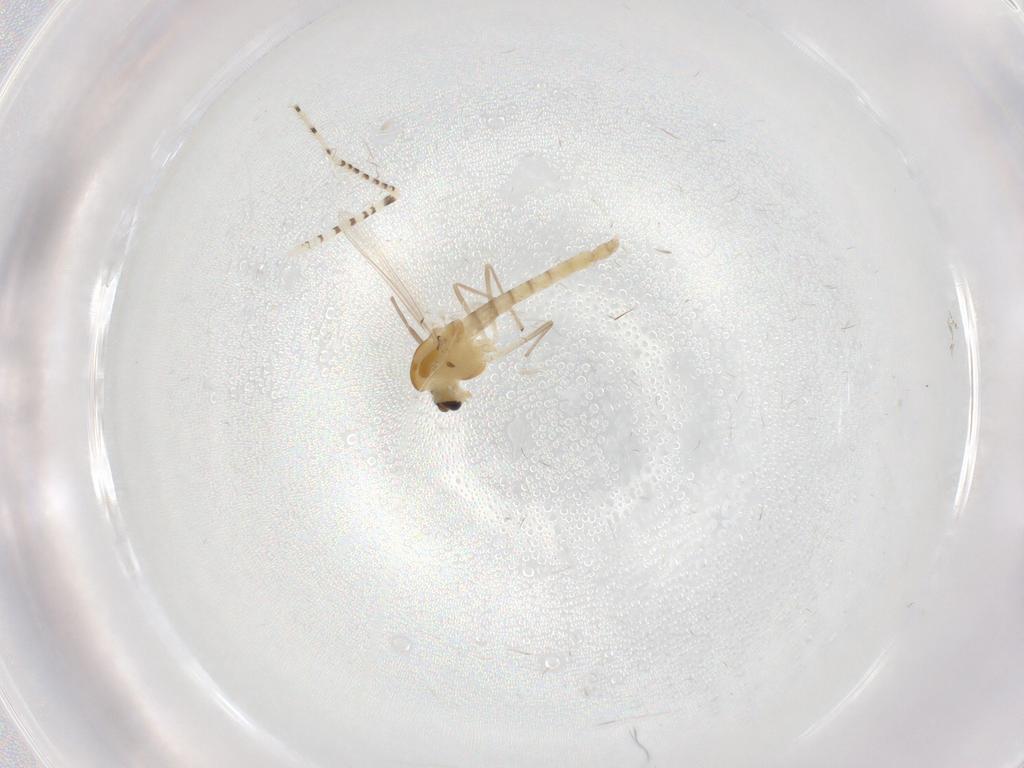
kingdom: Animalia
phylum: Arthropoda
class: Insecta
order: Diptera
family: Chaoboridae
